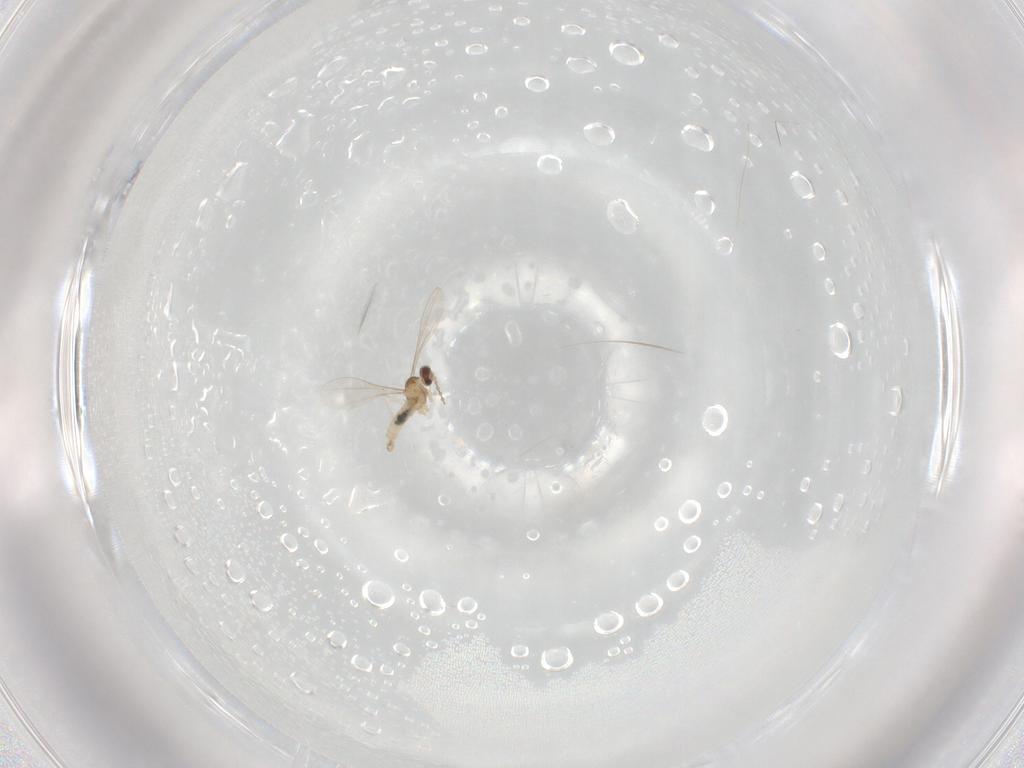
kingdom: Animalia
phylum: Arthropoda
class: Insecta
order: Diptera
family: Cecidomyiidae
